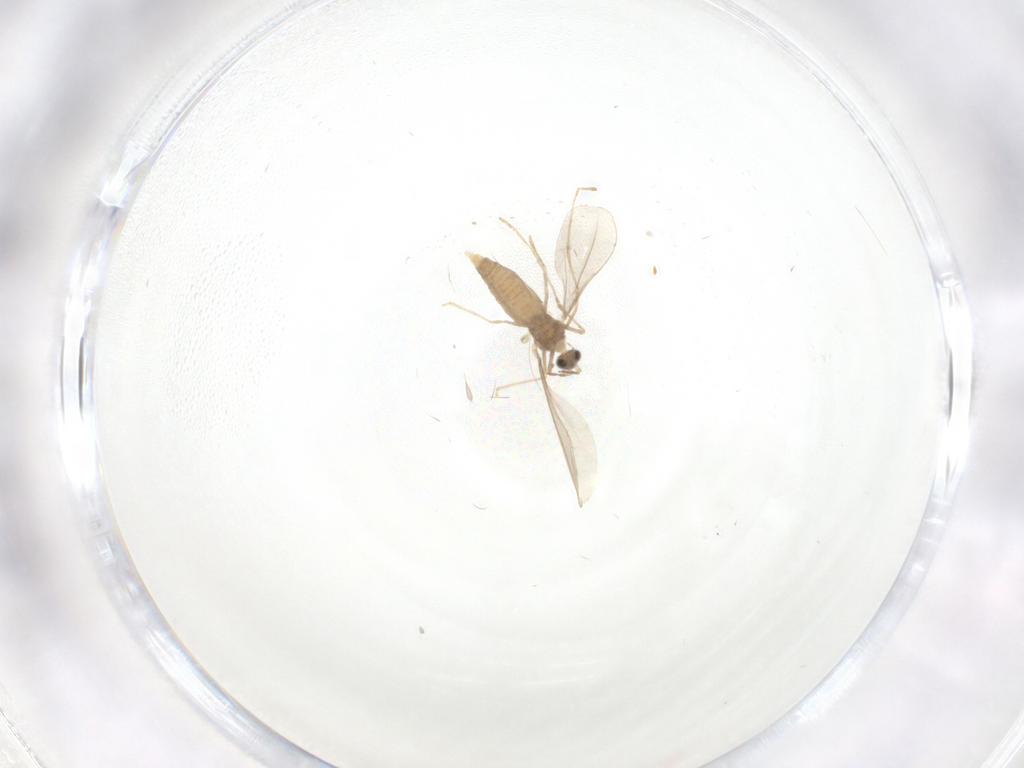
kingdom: Animalia
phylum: Arthropoda
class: Insecta
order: Diptera
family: Cecidomyiidae
